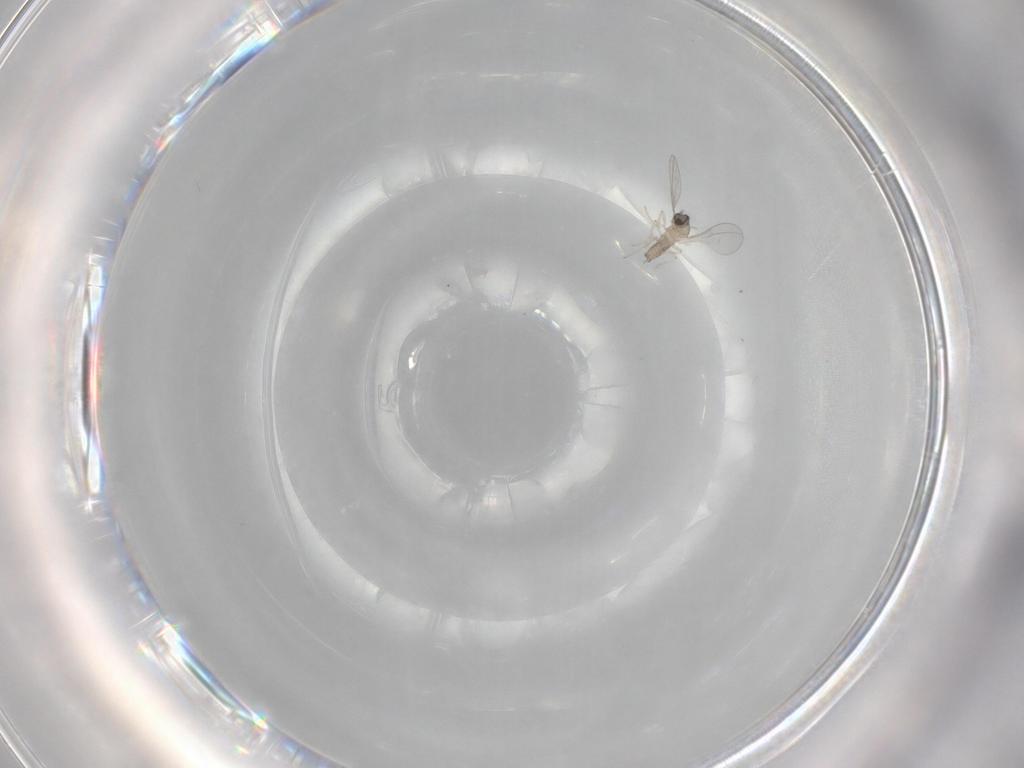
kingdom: Animalia
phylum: Arthropoda
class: Insecta
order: Diptera
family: Cecidomyiidae
